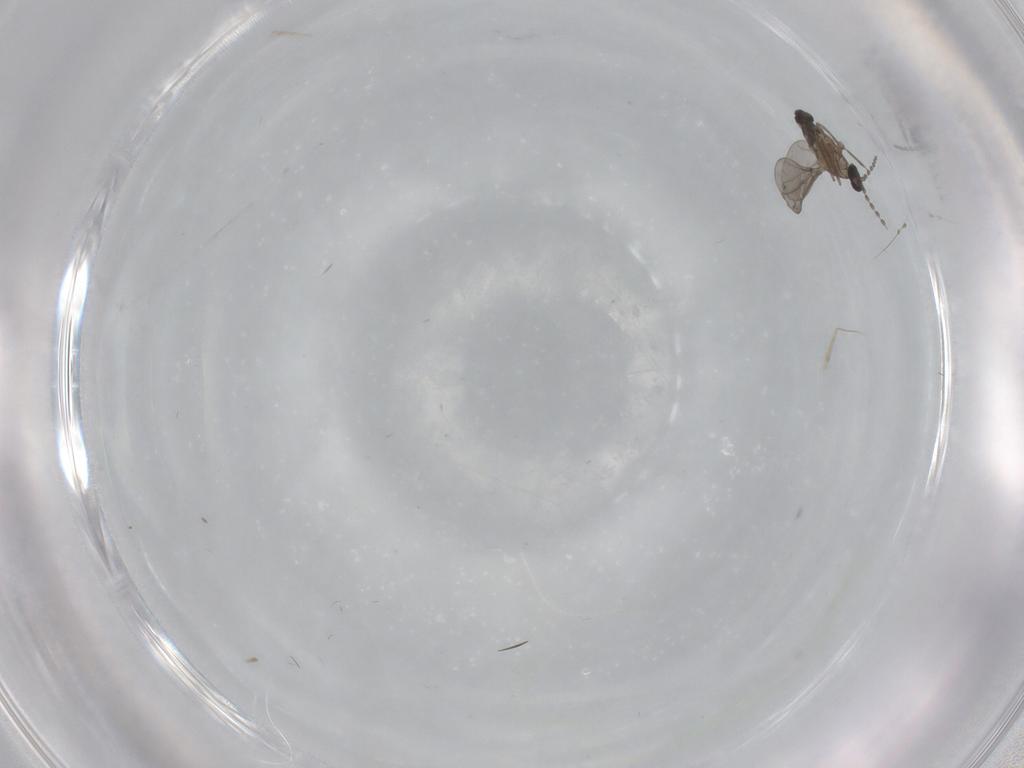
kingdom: Animalia
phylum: Arthropoda
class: Insecta
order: Diptera
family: Cecidomyiidae
